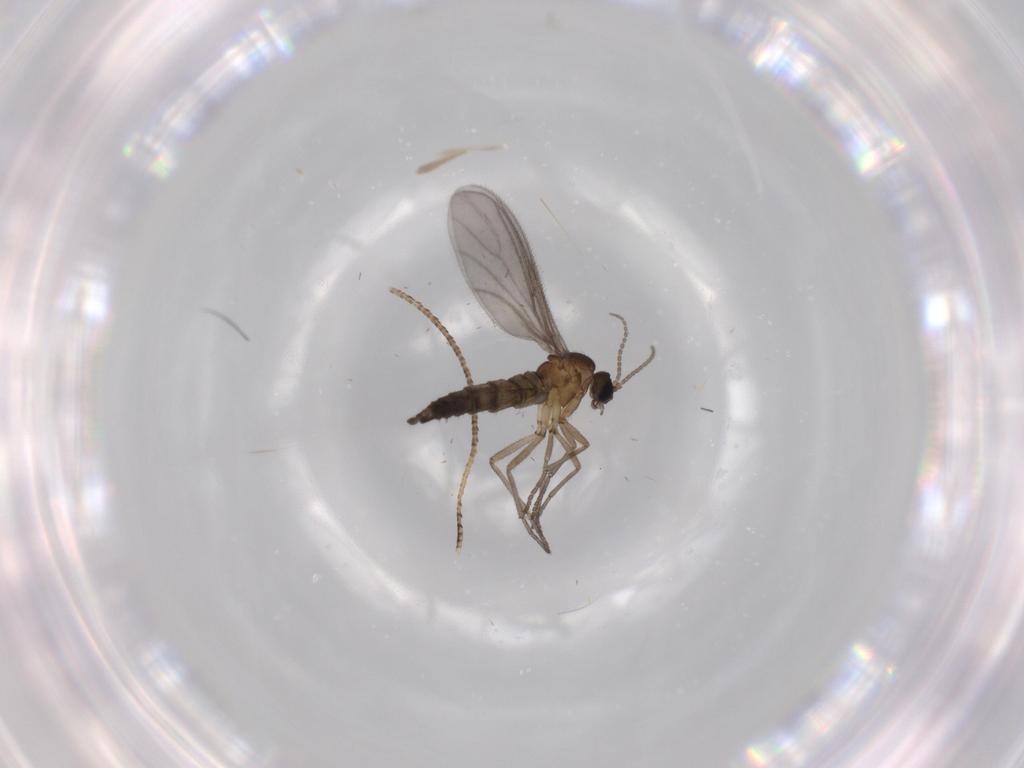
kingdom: Animalia
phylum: Arthropoda
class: Insecta
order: Diptera
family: Sciaridae
